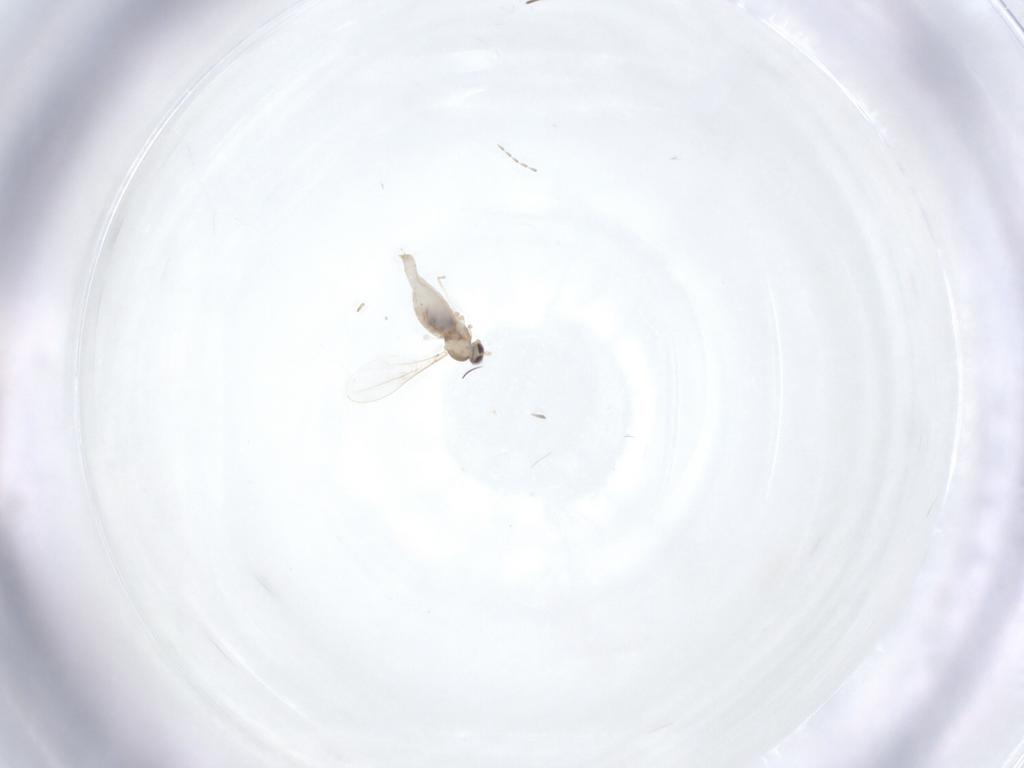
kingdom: Animalia
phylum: Arthropoda
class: Insecta
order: Diptera
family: Cecidomyiidae
